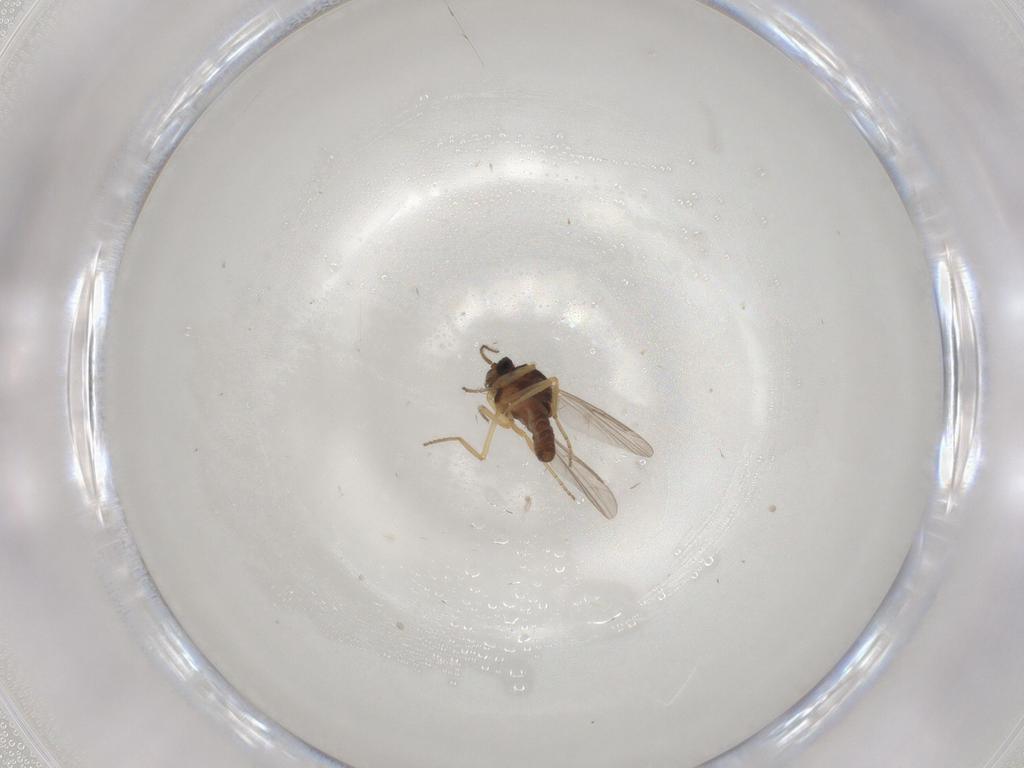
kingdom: Animalia
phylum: Arthropoda
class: Insecta
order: Diptera
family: Ceratopogonidae
